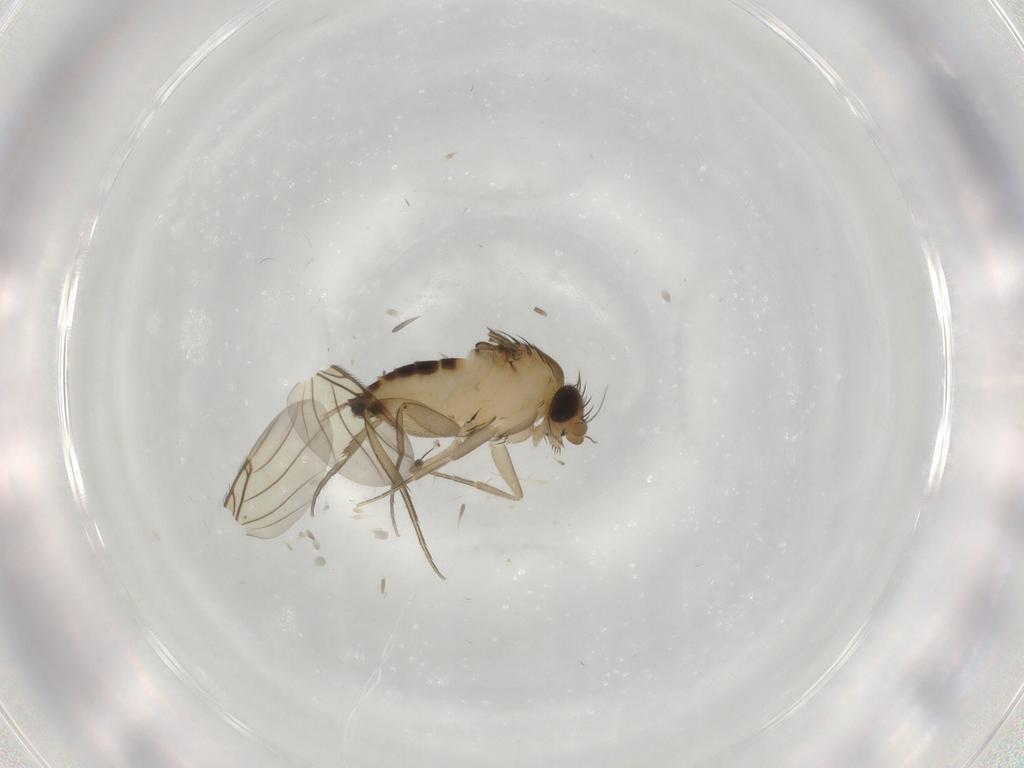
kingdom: Animalia
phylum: Arthropoda
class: Insecta
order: Diptera
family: Phoridae
